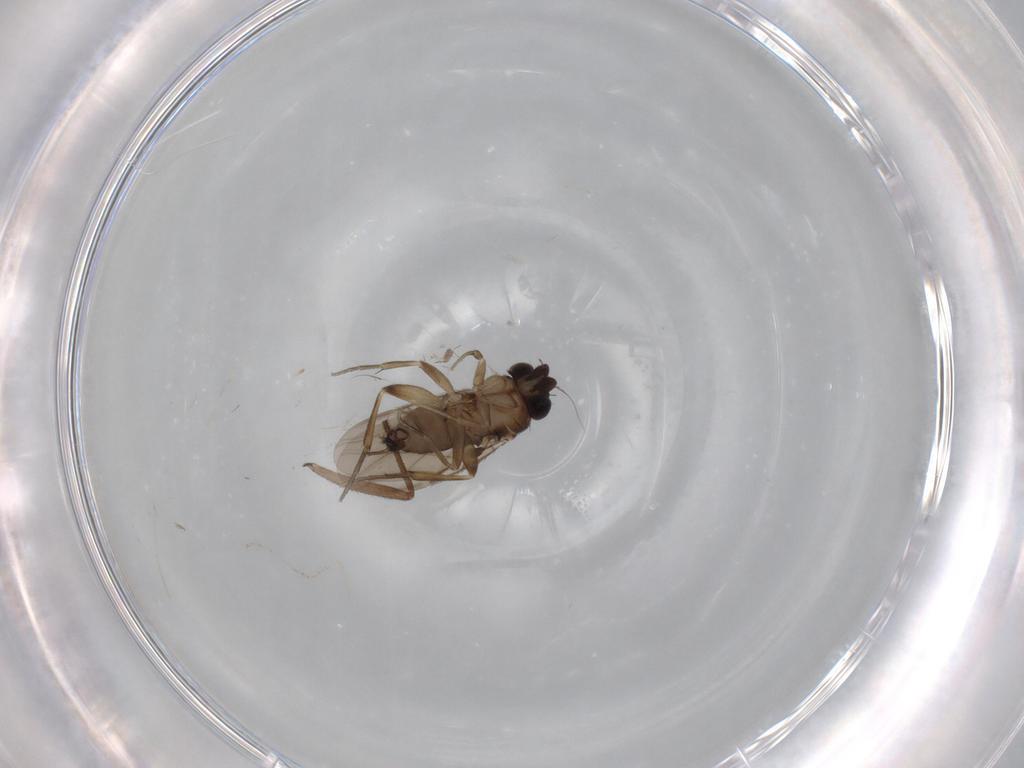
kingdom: Animalia
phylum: Arthropoda
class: Insecta
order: Diptera
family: Phoridae
